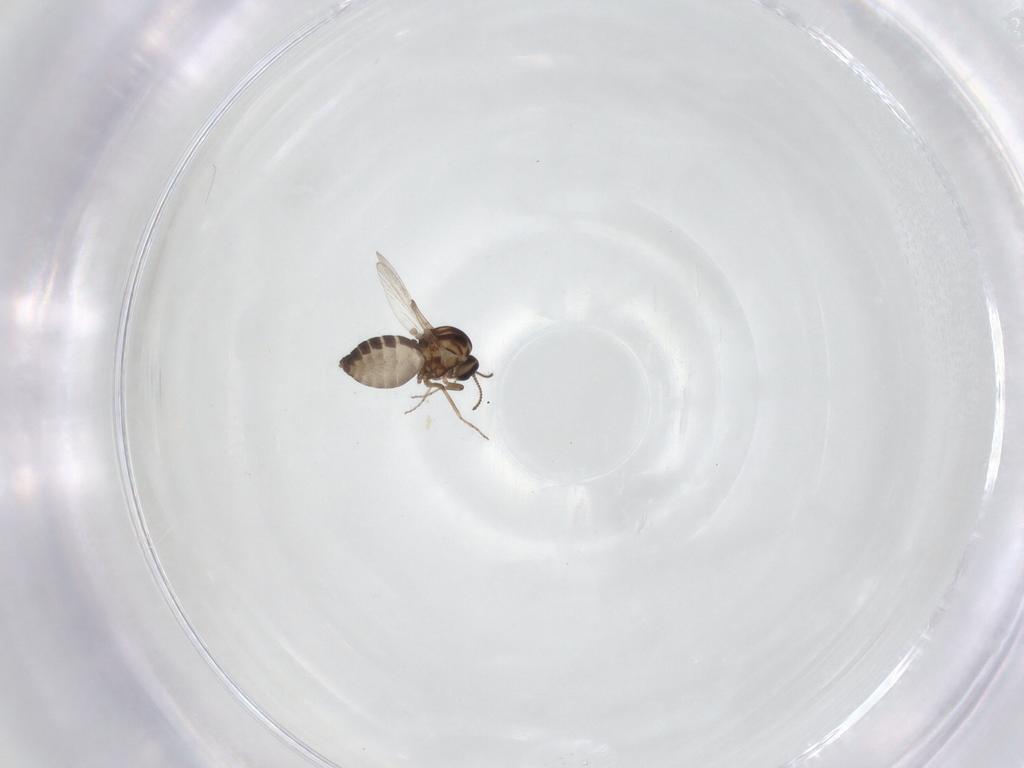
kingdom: Animalia
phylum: Arthropoda
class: Insecta
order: Diptera
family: Ceratopogonidae
